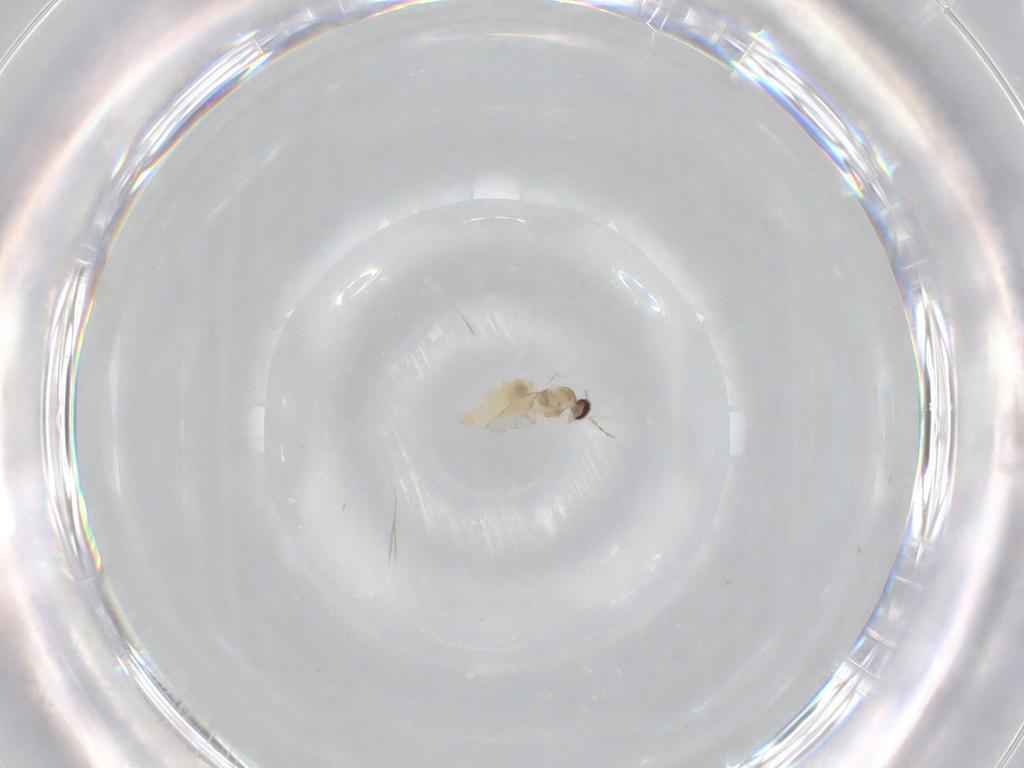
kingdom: Animalia
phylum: Arthropoda
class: Insecta
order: Diptera
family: Cecidomyiidae
